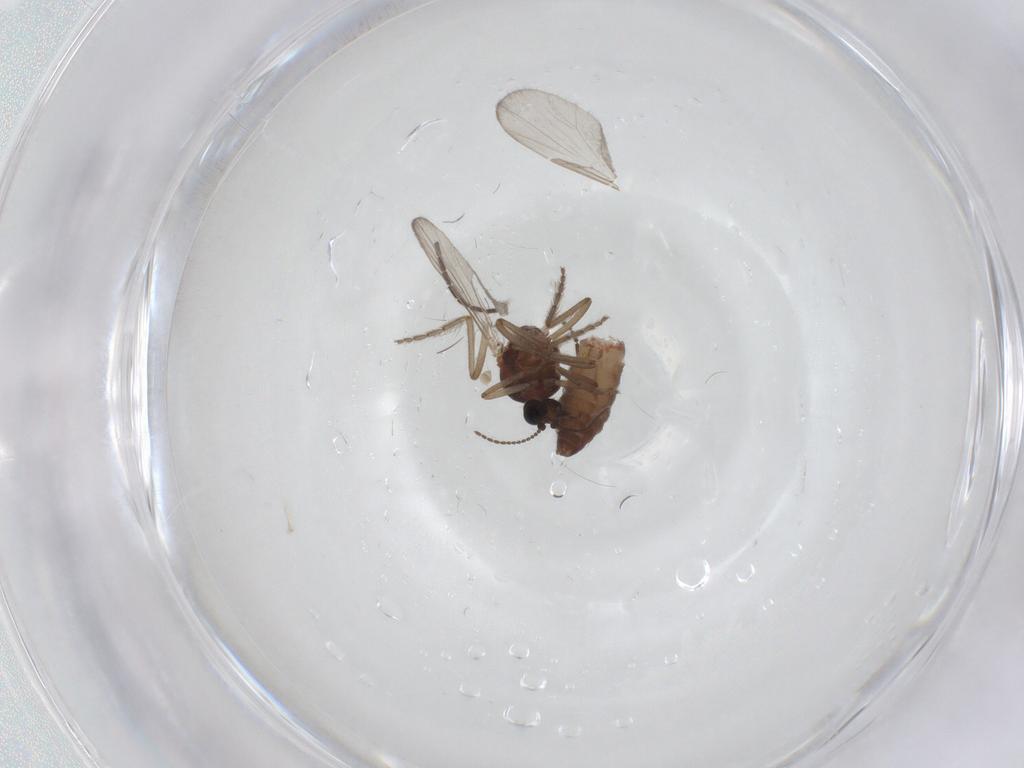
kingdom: Animalia
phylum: Arthropoda
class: Insecta
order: Diptera
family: Ceratopogonidae
